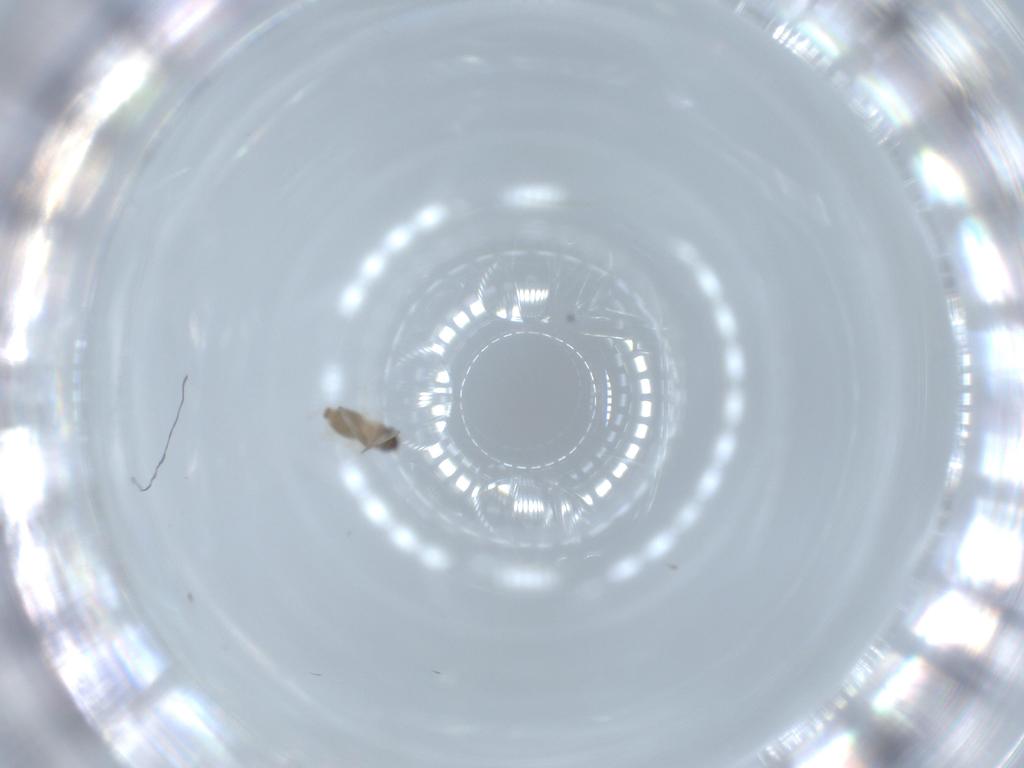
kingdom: Animalia
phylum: Arthropoda
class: Insecta
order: Diptera
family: Cecidomyiidae
